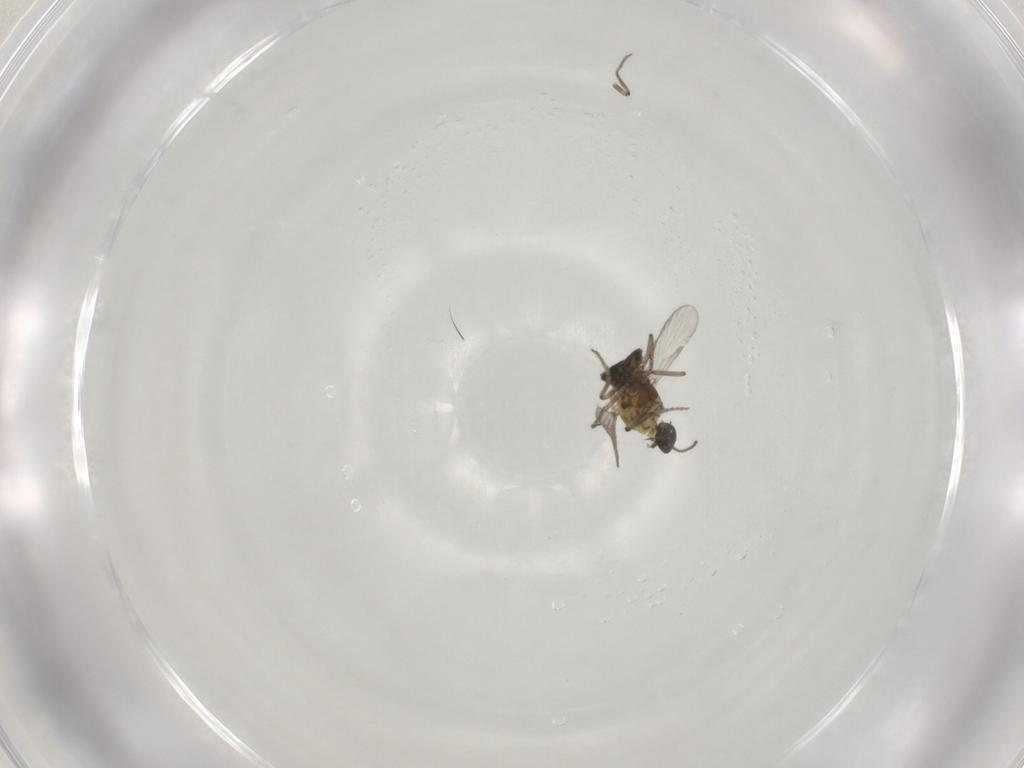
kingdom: Animalia
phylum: Arthropoda
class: Insecta
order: Diptera
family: Ceratopogonidae
